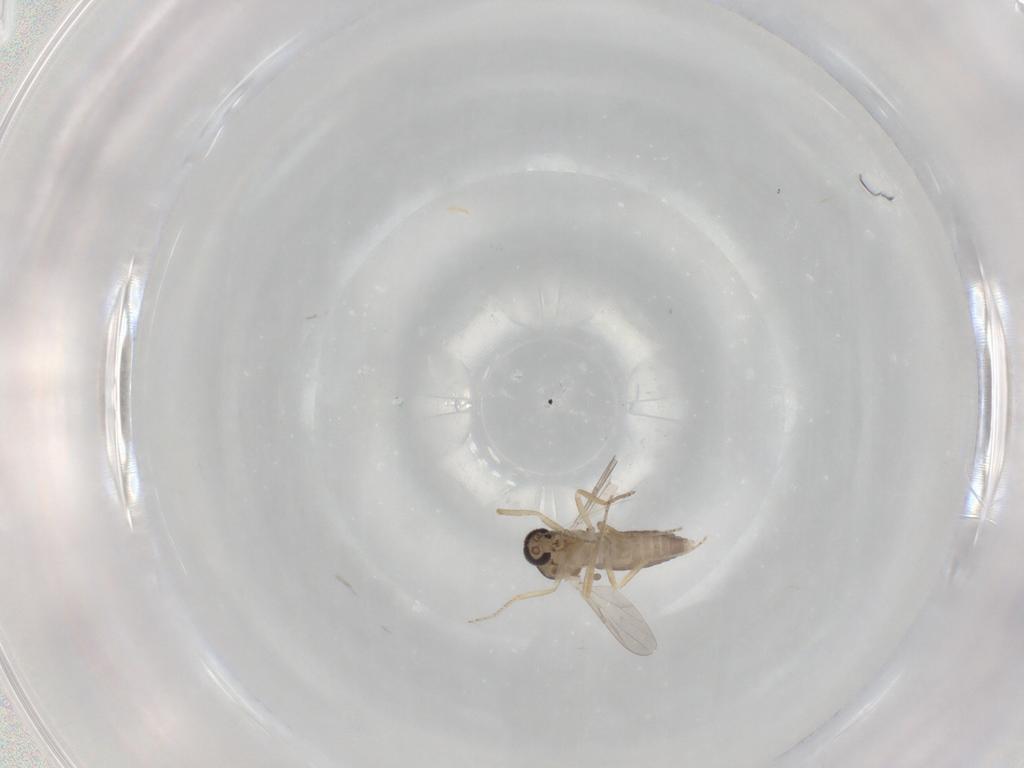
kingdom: Animalia
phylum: Arthropoda
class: Insecta
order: Diptera
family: Ceratopogonidae
